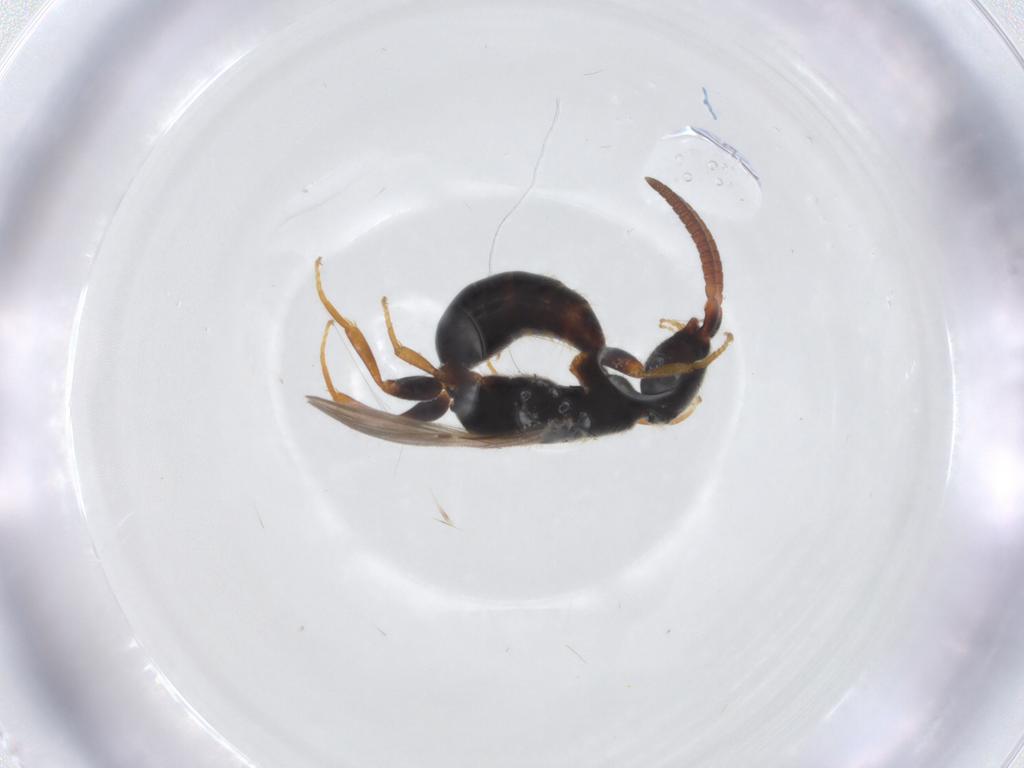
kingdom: Animalia
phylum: Arthropoda
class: Insecta
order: Hymenoptera
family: Bethylidae
